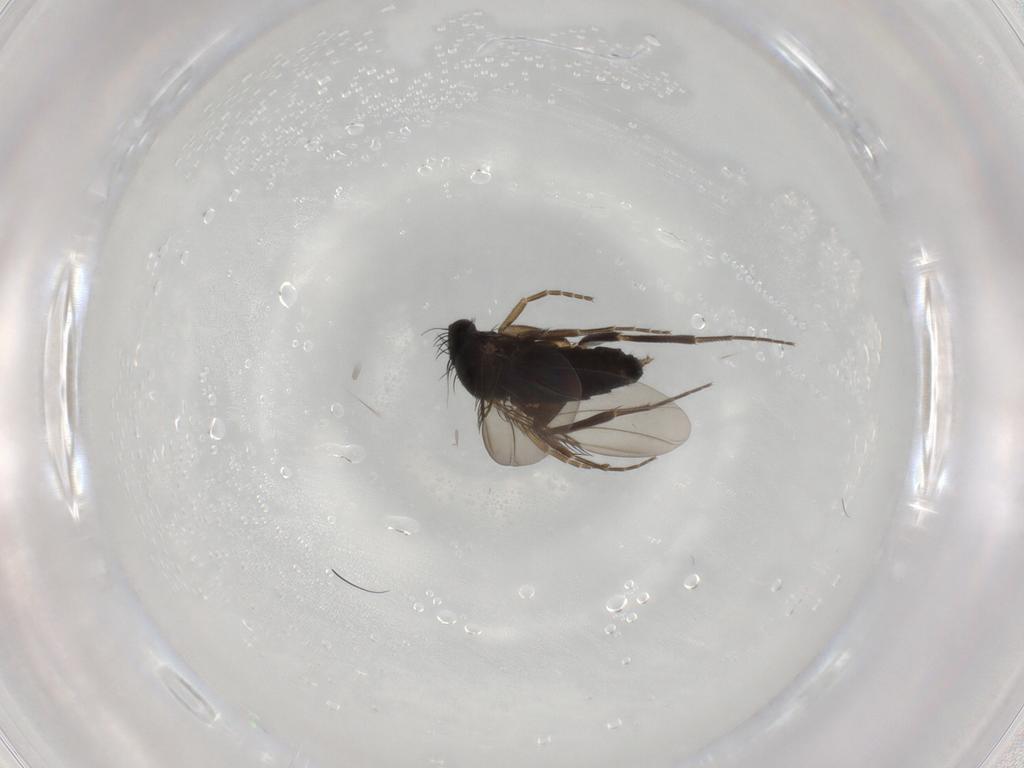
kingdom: Animalia
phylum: Arthropoda
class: Insecta
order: Diptera
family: Phoridae
